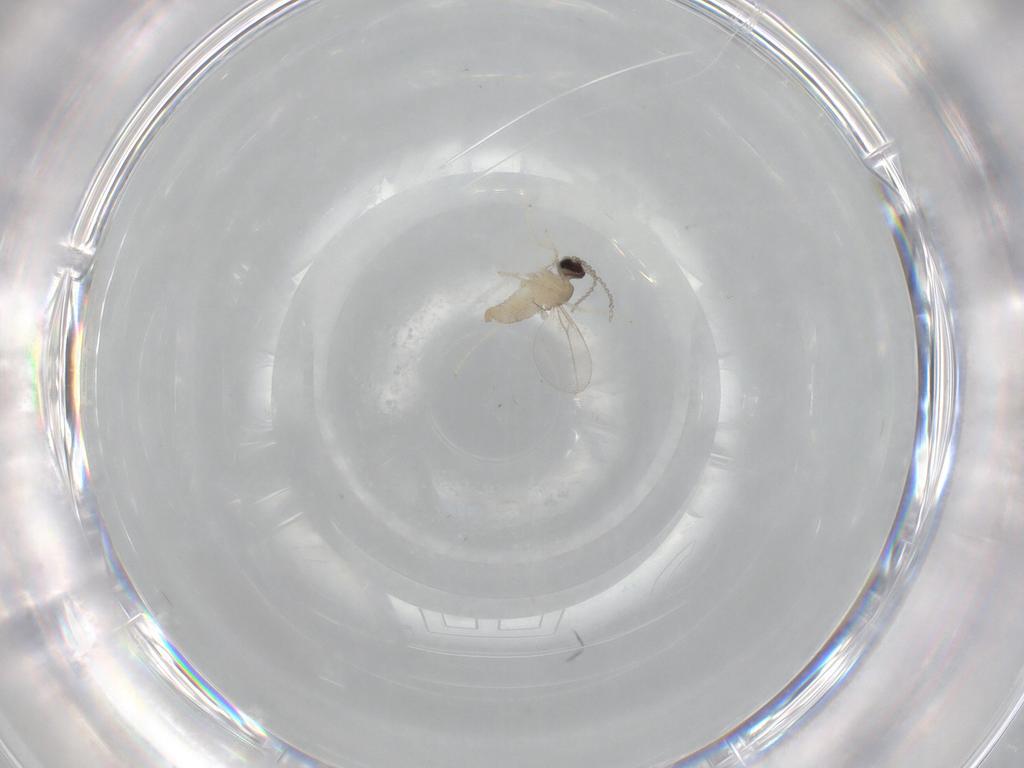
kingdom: Animalia
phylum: Arthropoda
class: Insecta
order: Diptera
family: Cecidomyiidae
